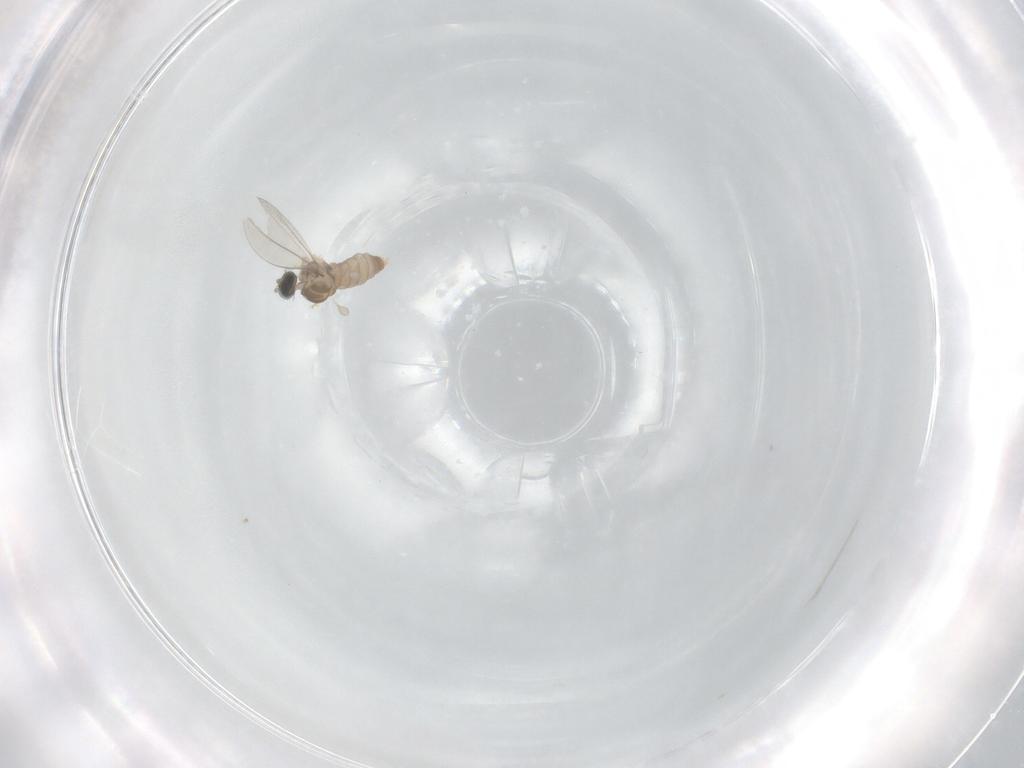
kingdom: Animalia
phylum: Arthropoda
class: Insecta
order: Diptera
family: Cecidomyiidae
